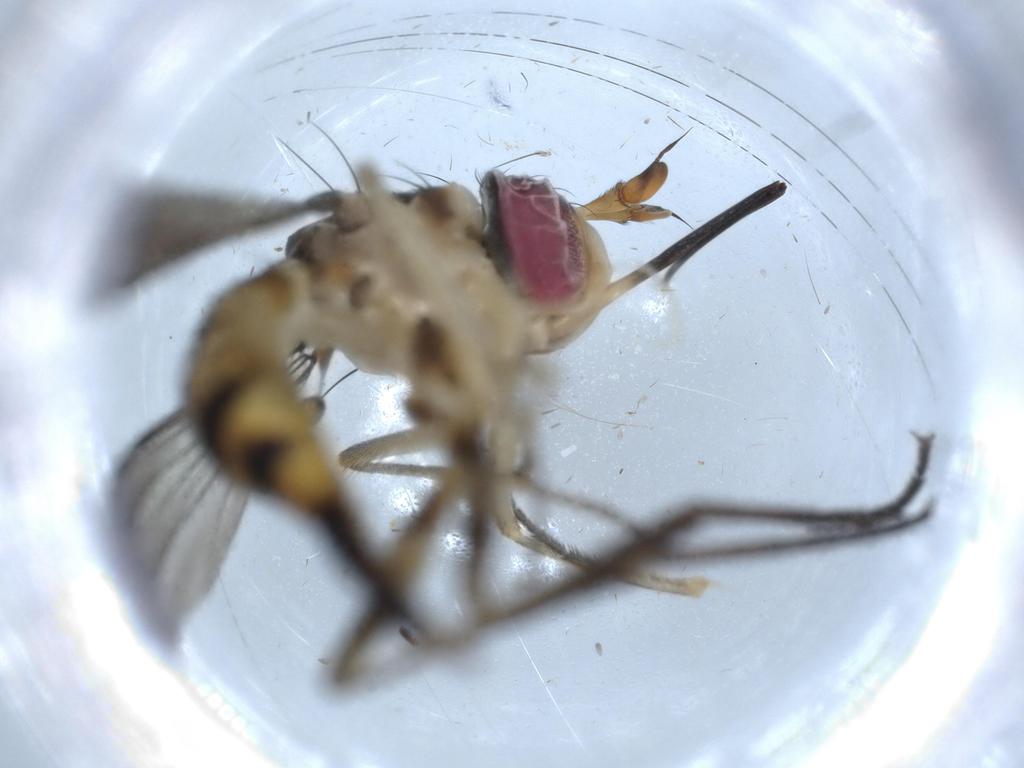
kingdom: Animalia
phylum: Arthropoda
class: Insecta
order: Diptera
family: Conopidae
